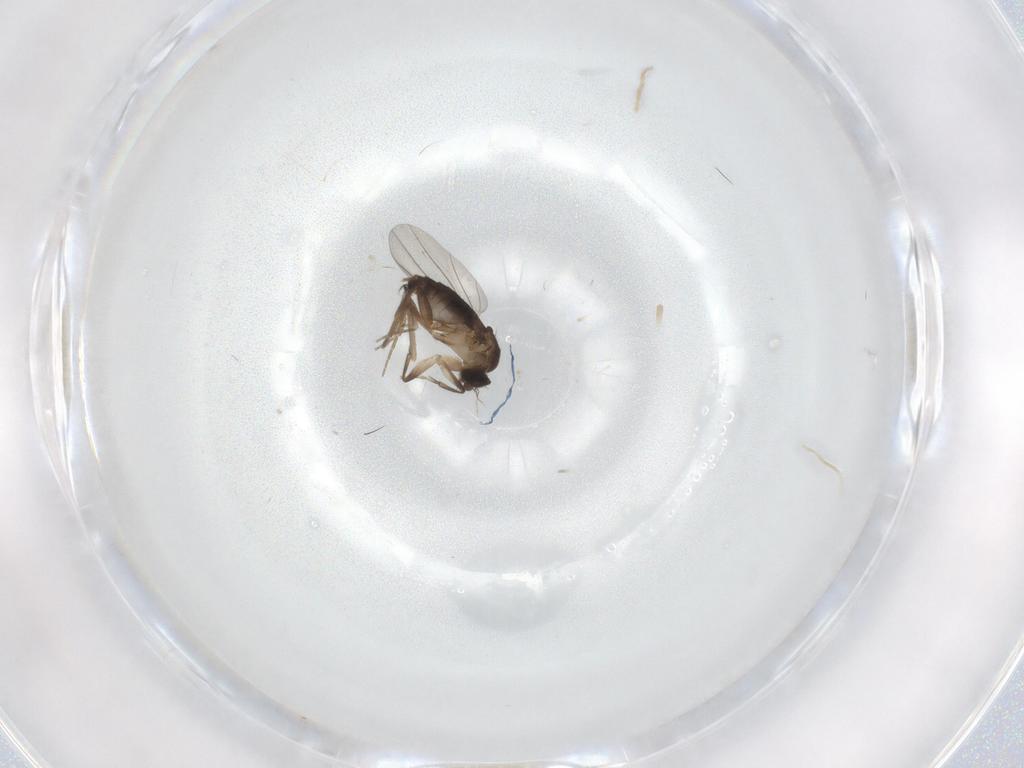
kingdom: Animalia
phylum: Arthropoda
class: Insecta
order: Diptera
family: Phoridae
